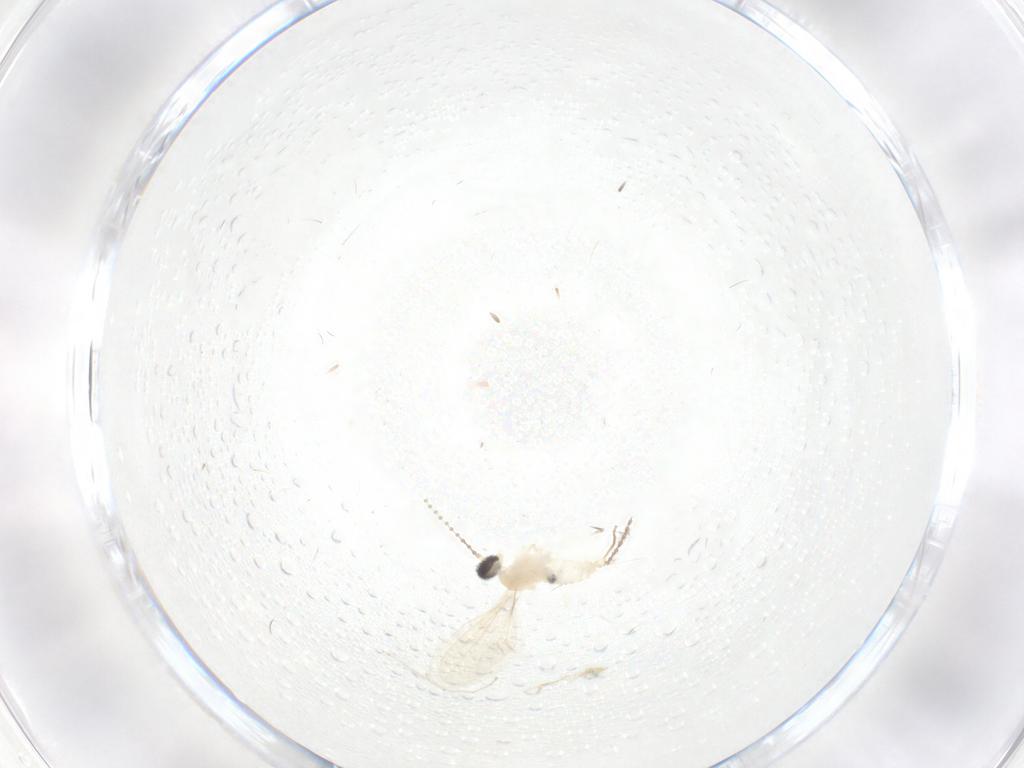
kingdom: Animalia
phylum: Arthropoda
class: Insecta
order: Diptera
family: Cecidomyiidae
